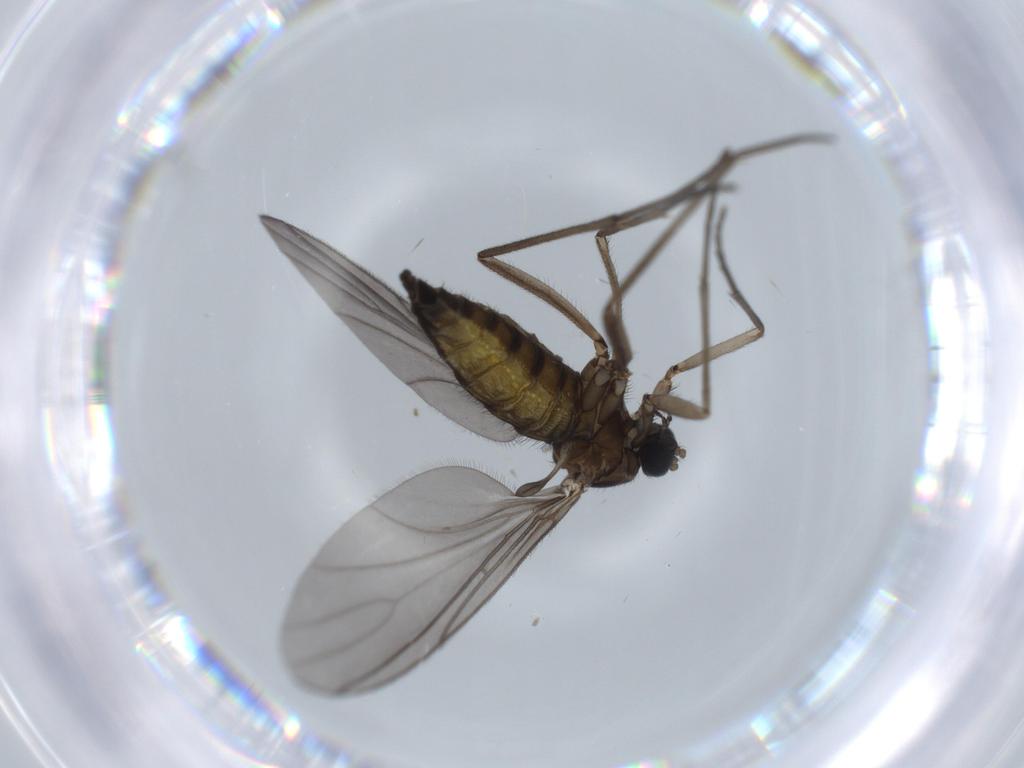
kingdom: Animalia
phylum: Arthropoda
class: Insecta
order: Diptera
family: Sciaridae
